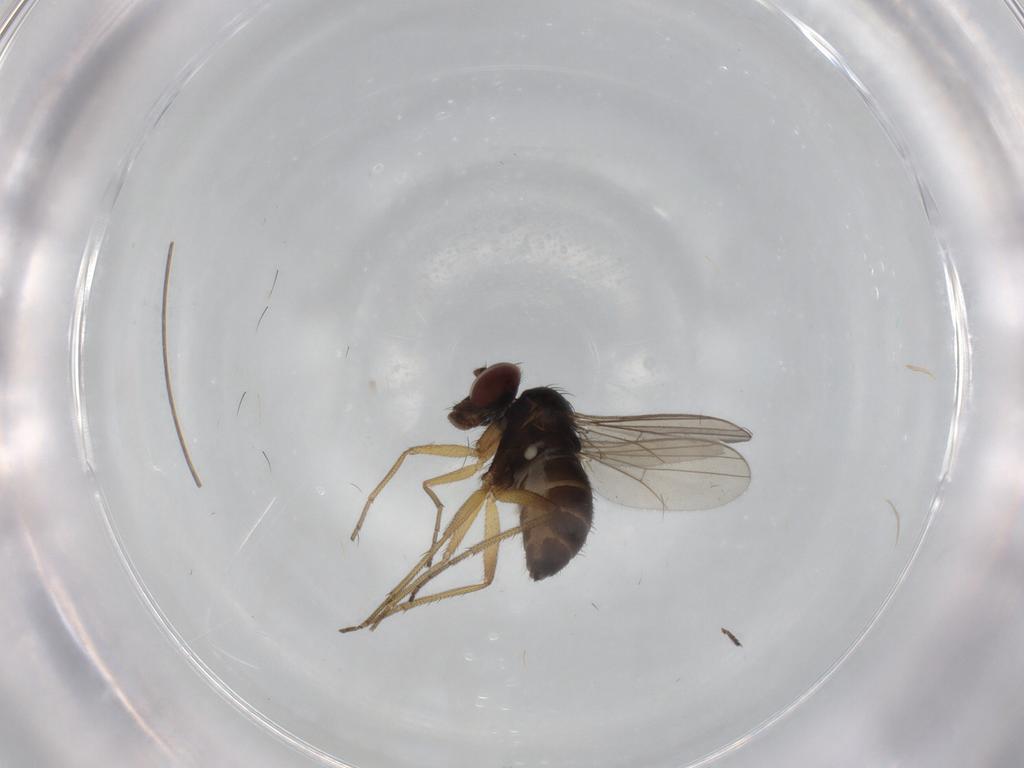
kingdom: Animalia
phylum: Arthropoda
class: Insecta
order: Diptera
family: Dolichopodidae
